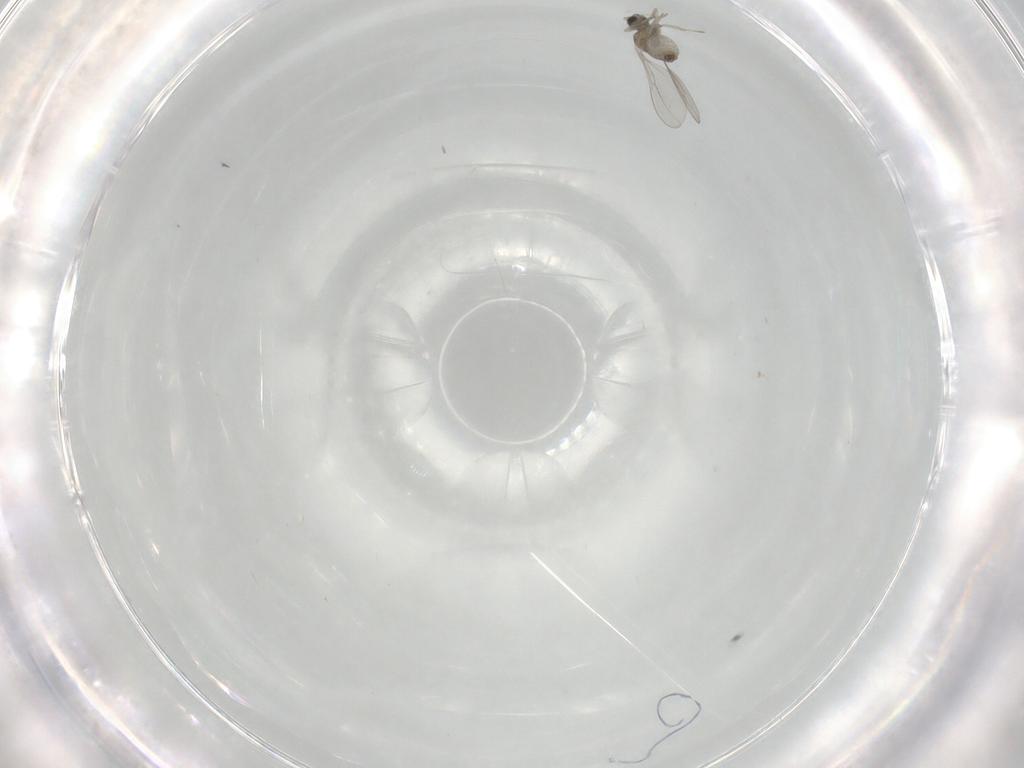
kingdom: Animalia
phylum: Arthropoda
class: Insecta
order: Diptera
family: Cecidomyiidae
